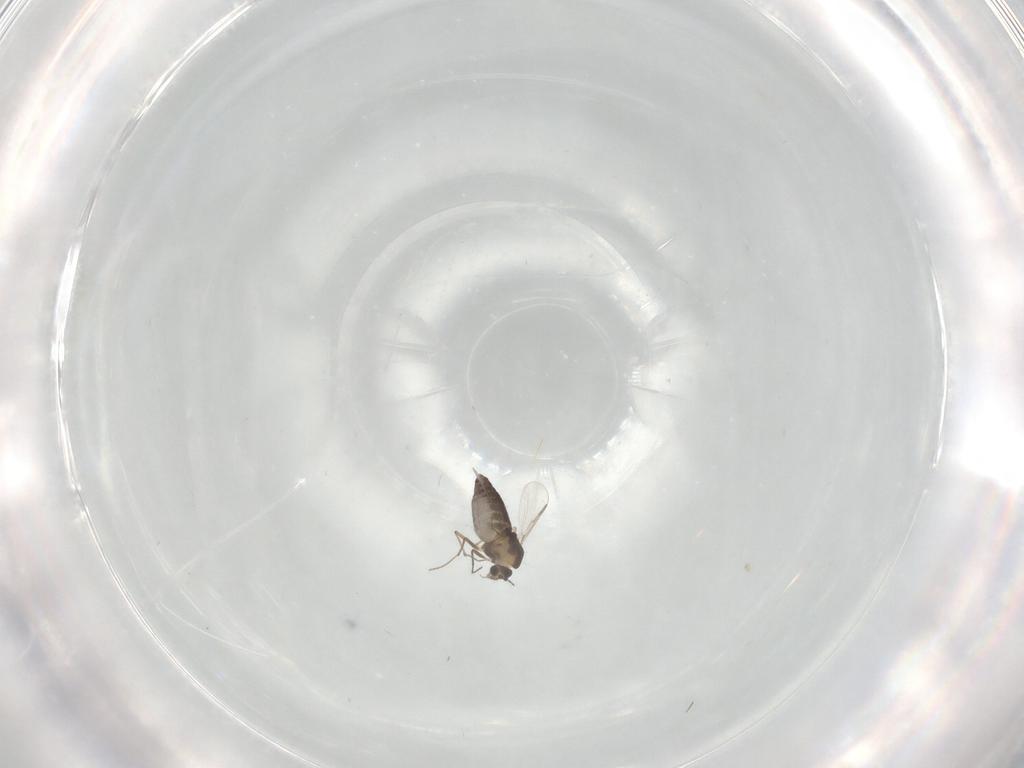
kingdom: Animalia
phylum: Arthropoda
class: Insecta
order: Diptera
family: Chironomidae
